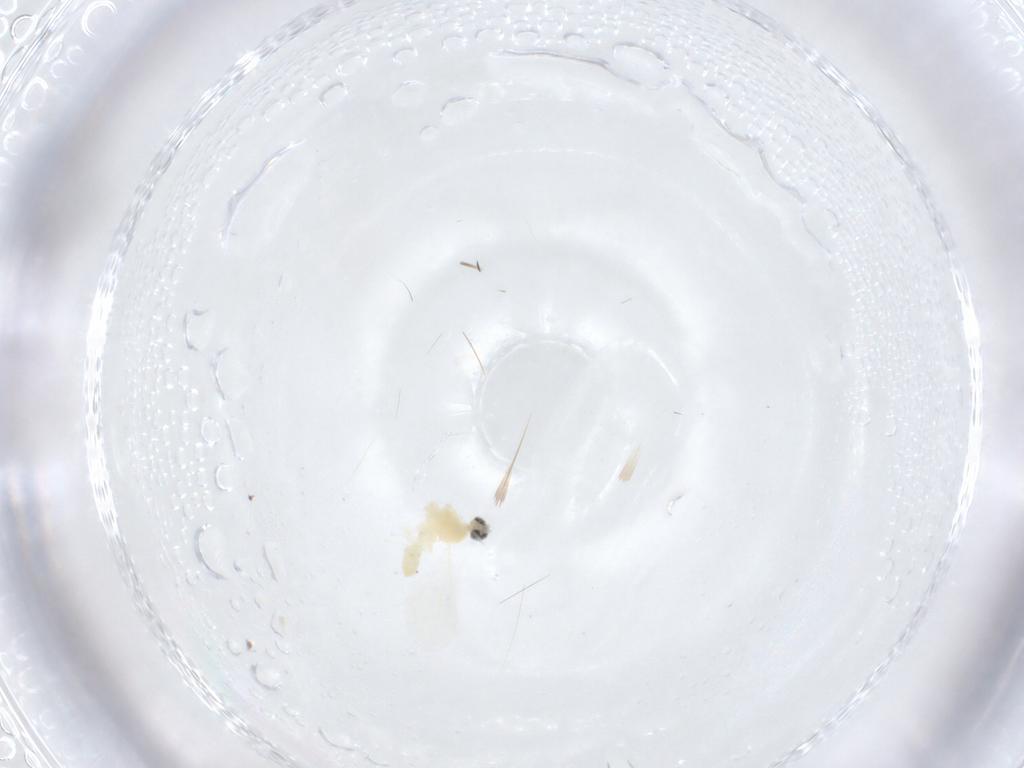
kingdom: Animalia
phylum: Arthropoda
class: Insecta
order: Diptera
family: Cecidomyiidae
